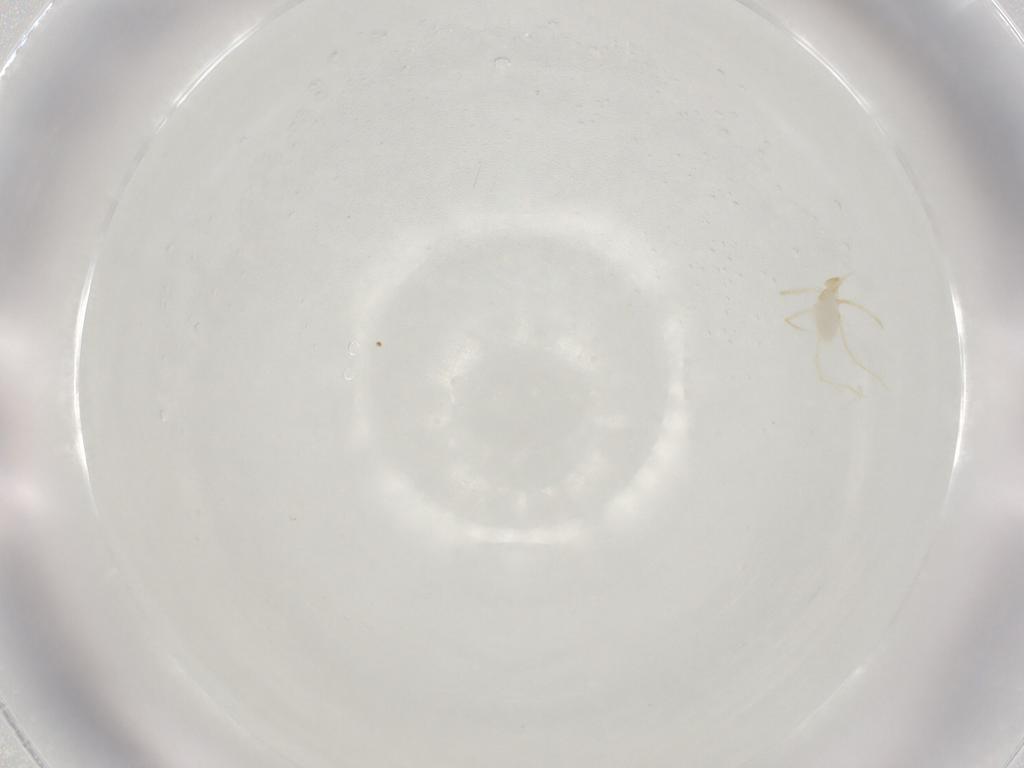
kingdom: Animalia
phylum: Arthropoda
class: Arachnida
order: Trombidiformes
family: Erythraeidae
